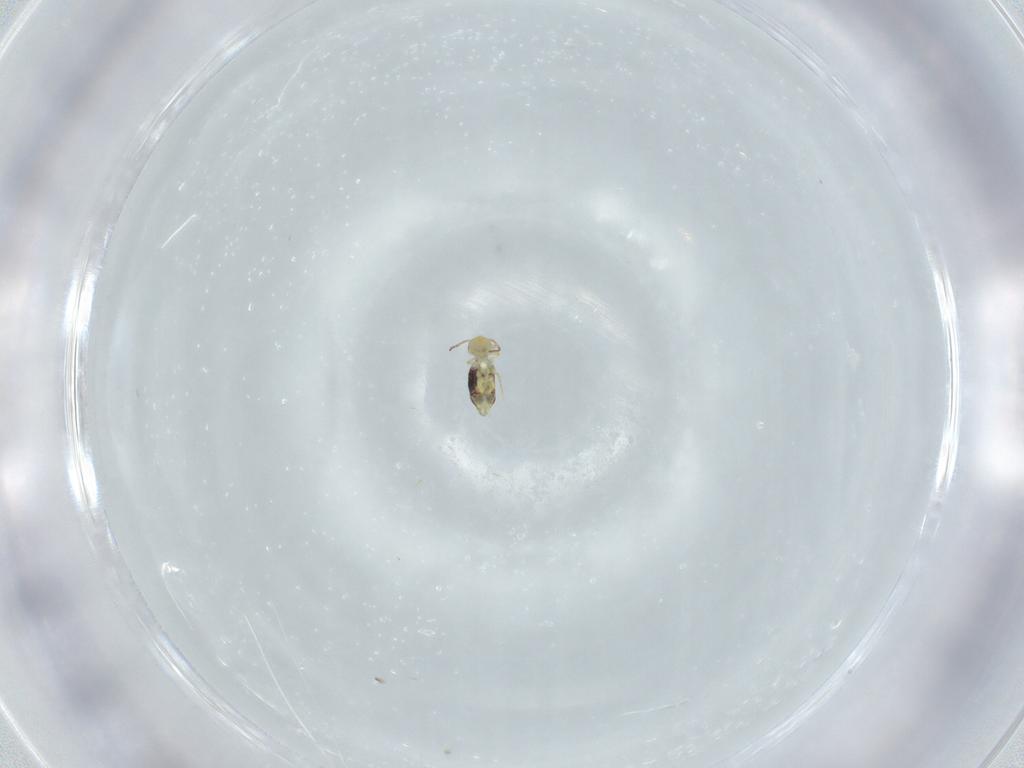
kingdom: Animalia
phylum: Arthropoda
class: Collembola
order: Symphypleona
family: Bourletiellidae
